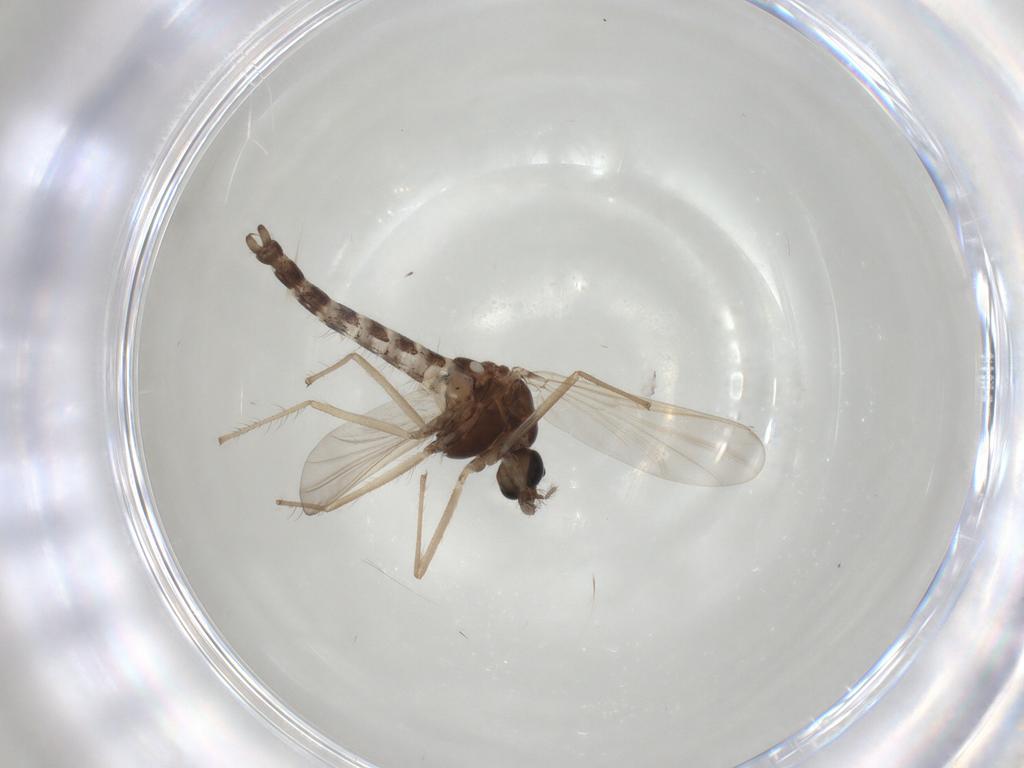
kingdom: Animalia
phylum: Arthropoda
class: Insecta
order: Diptera
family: Chironomidae
